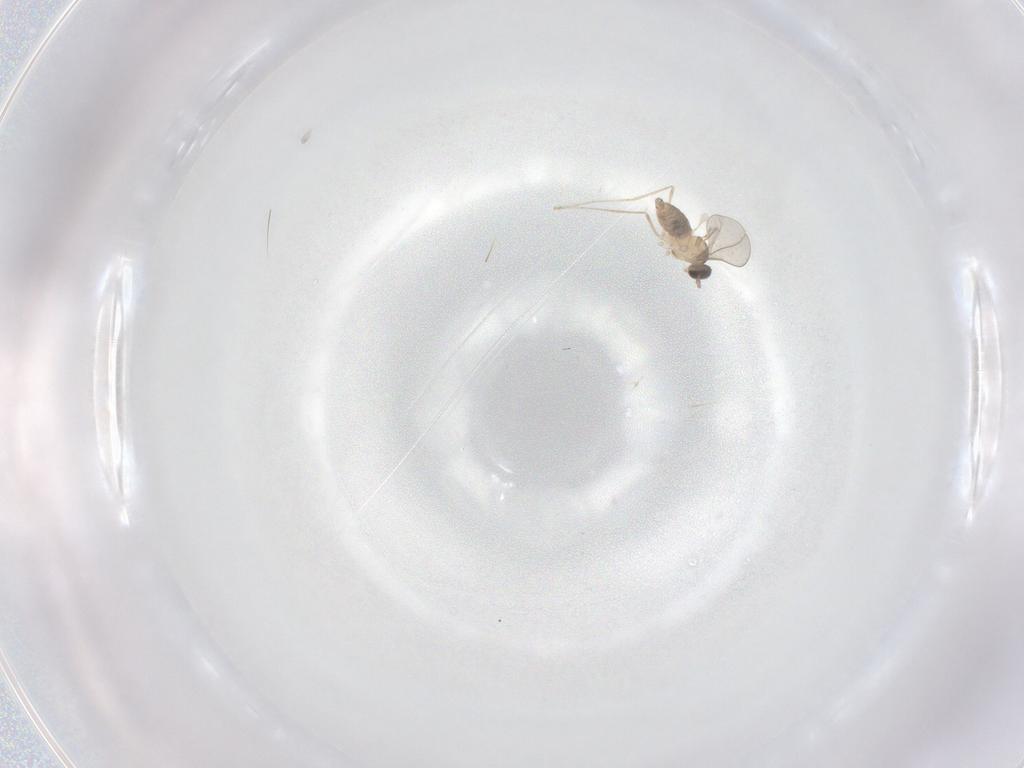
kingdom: Animalia
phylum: Arthropoda
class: Insecta
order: Diptera
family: Cecidomyiidae
